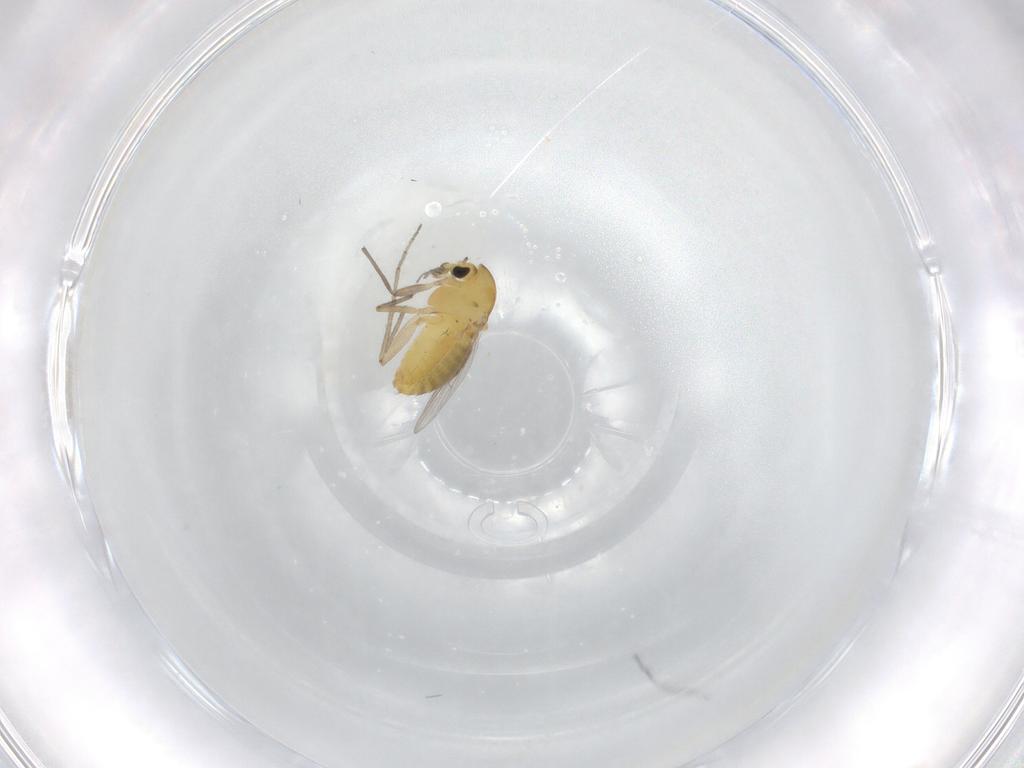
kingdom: Animalia
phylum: Arthropoda
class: Insecta
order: Diptera
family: Chironomidae
